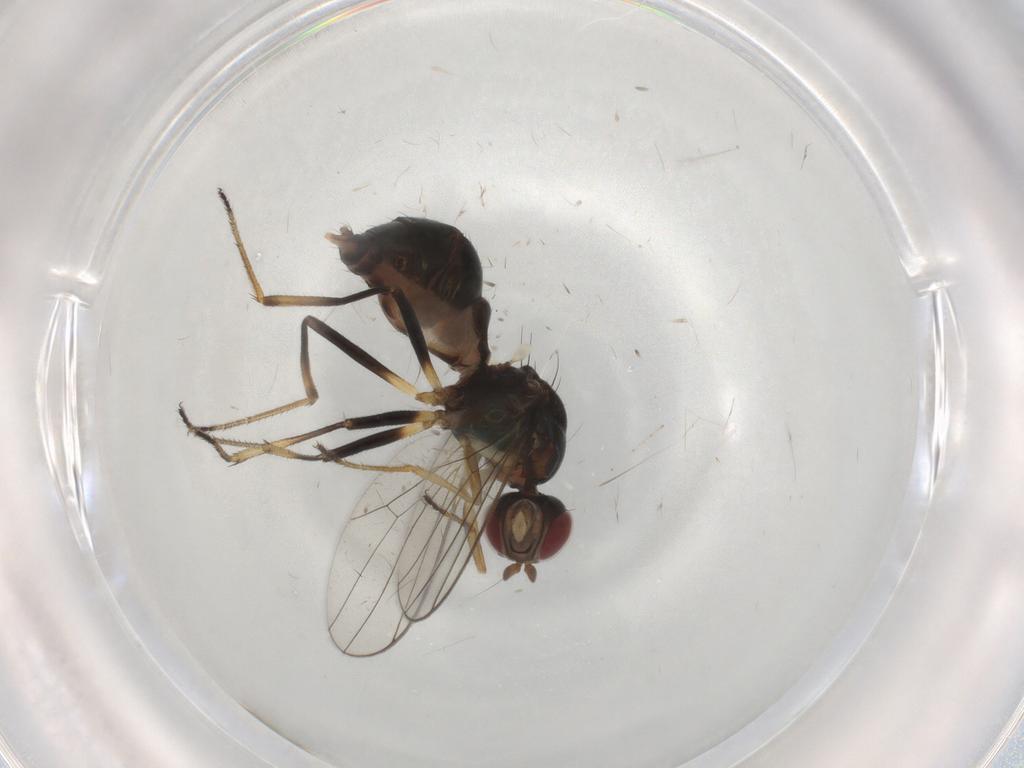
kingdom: Animalia
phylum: Arthropoda
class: Insecta
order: Diptera
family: Sepsidae
